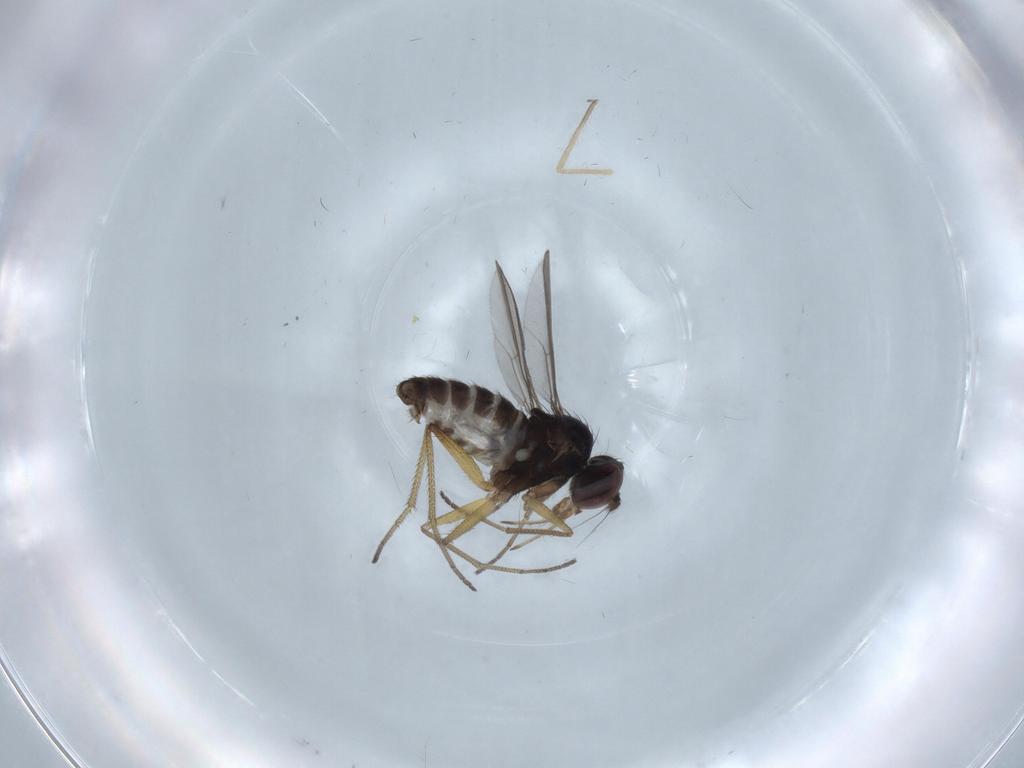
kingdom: Animalia
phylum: Arthropoda
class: Insecta
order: Diptera
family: Dolichopodidae
